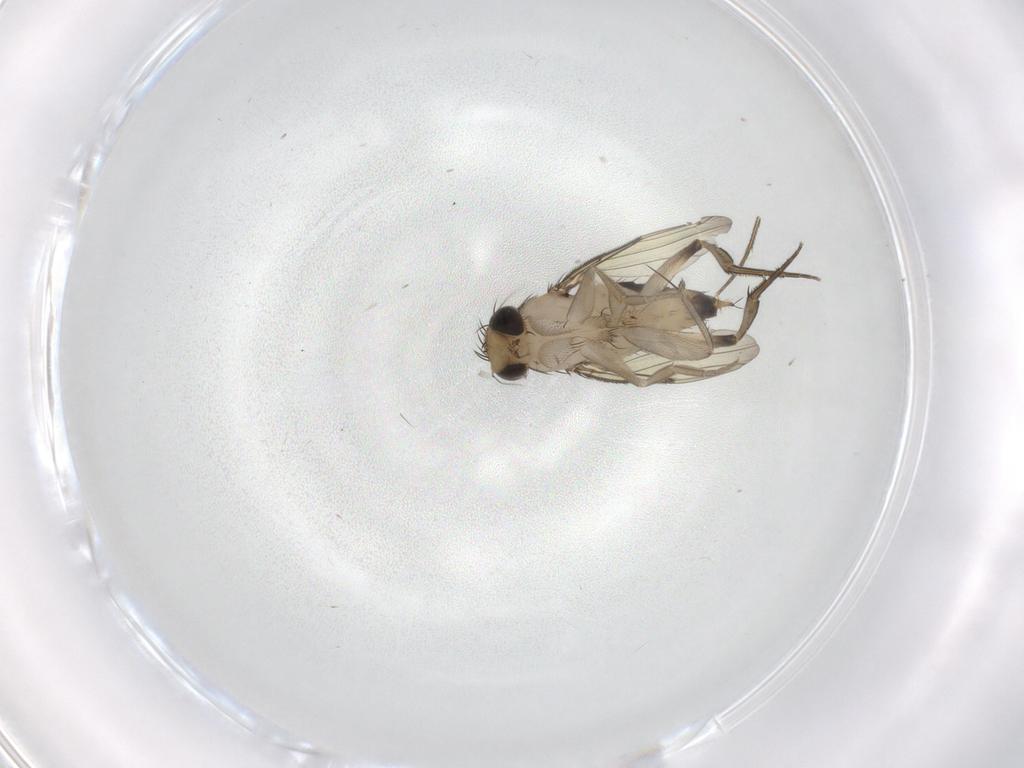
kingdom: Animalia
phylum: Arthropoda
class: Insecta
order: Diptera
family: Phoridae
